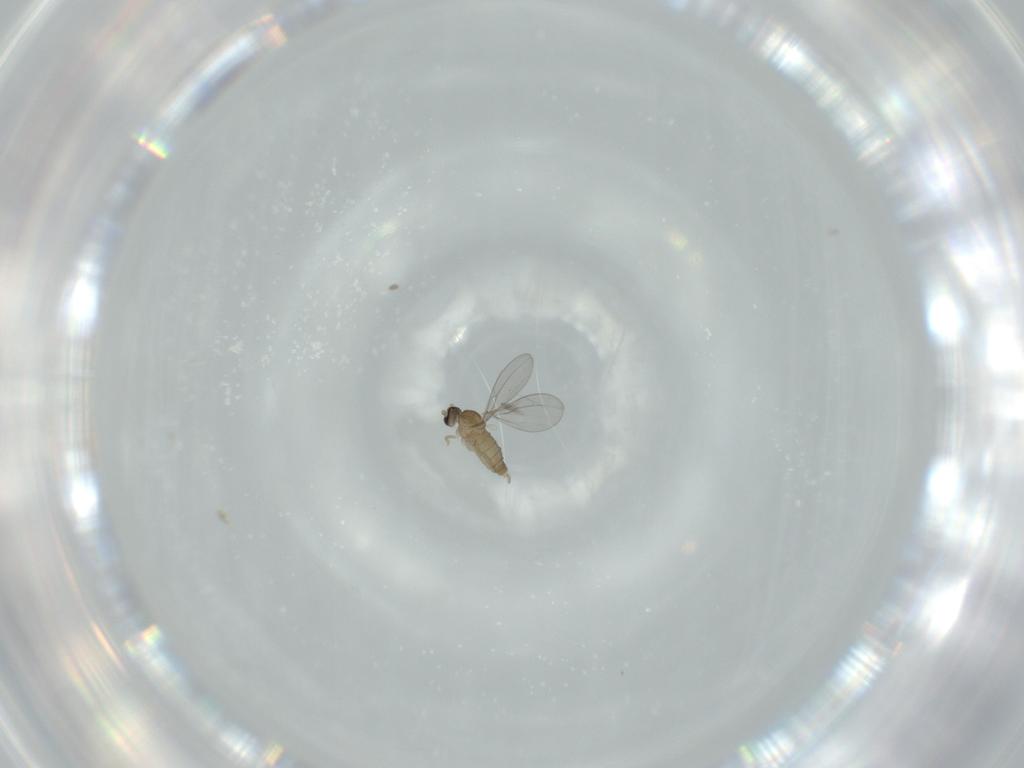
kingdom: Animalia
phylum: Arthropoda
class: Insecta
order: Diptera
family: Cecidomyiidae
